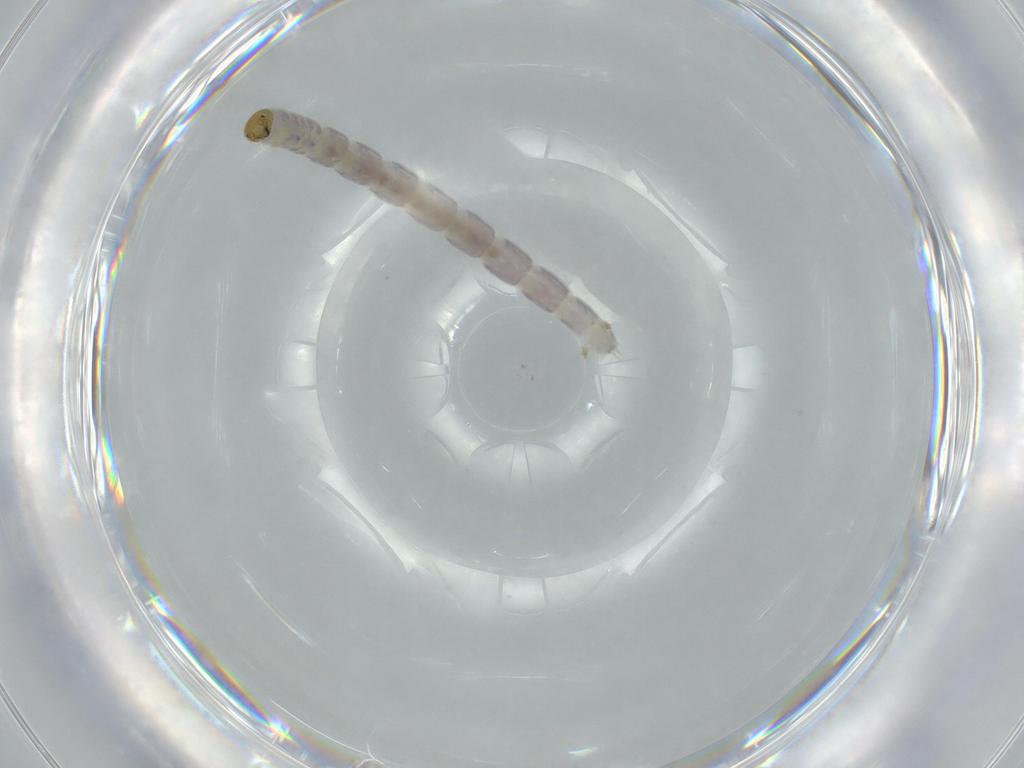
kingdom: Animalia
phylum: Arthropoda
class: Insecta
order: Diptera
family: Chironomidae
